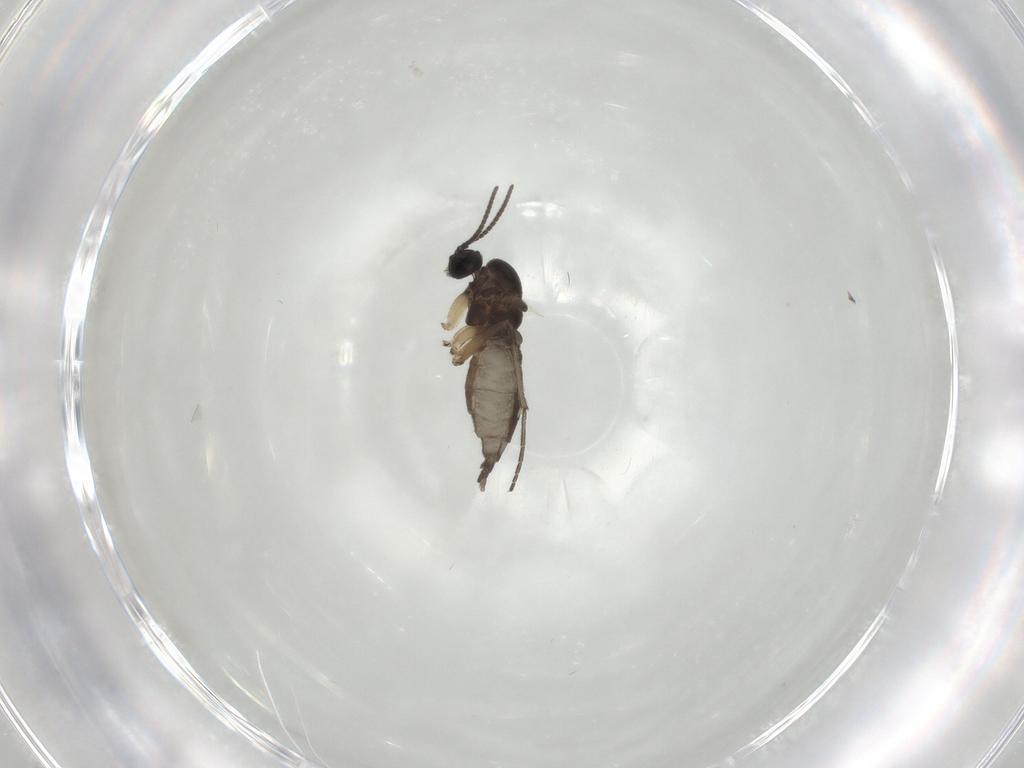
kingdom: Animalia
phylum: Arthropoda
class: Insecta
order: Diptera
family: Sciaridae
